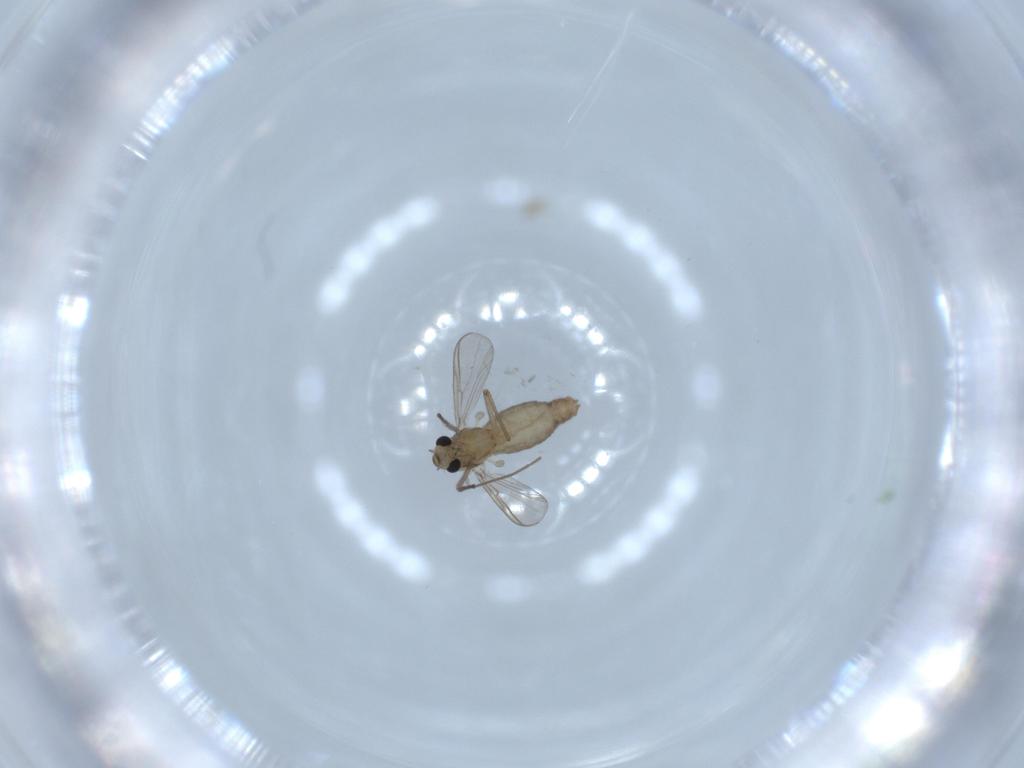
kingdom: Animalia
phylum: Arthropoda
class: Insecta
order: Diptera
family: Chironomidae
